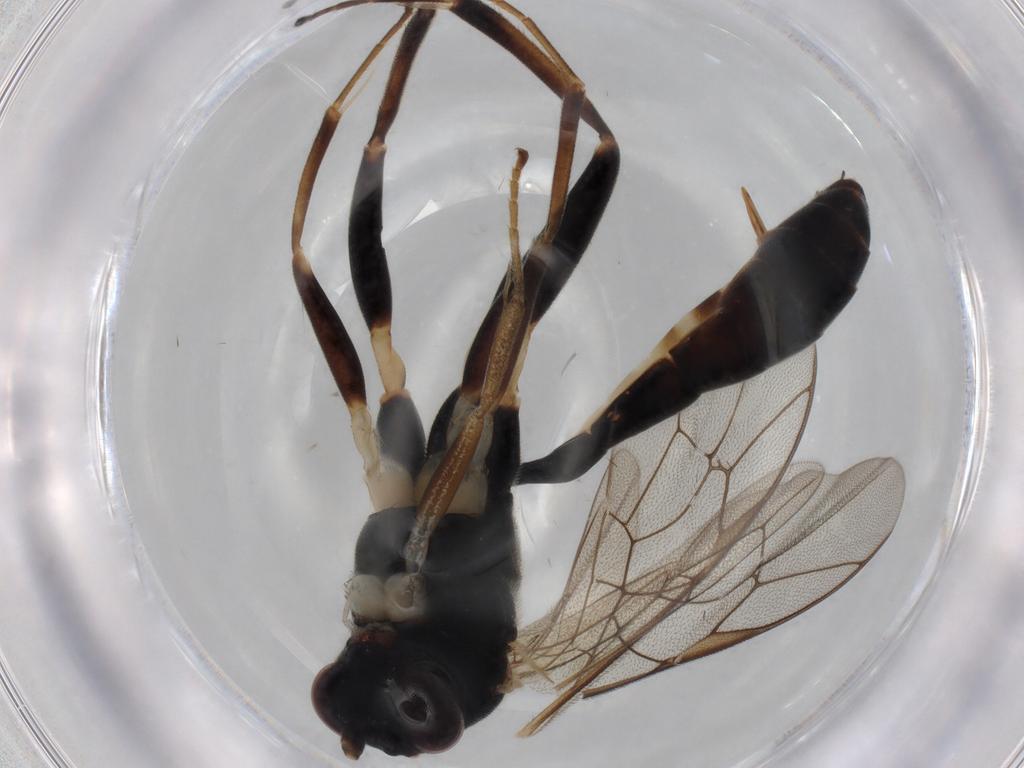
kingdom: Animalia
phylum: Arthropoda
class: Insecta
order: Hymenoptera
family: Ichneumonidae
